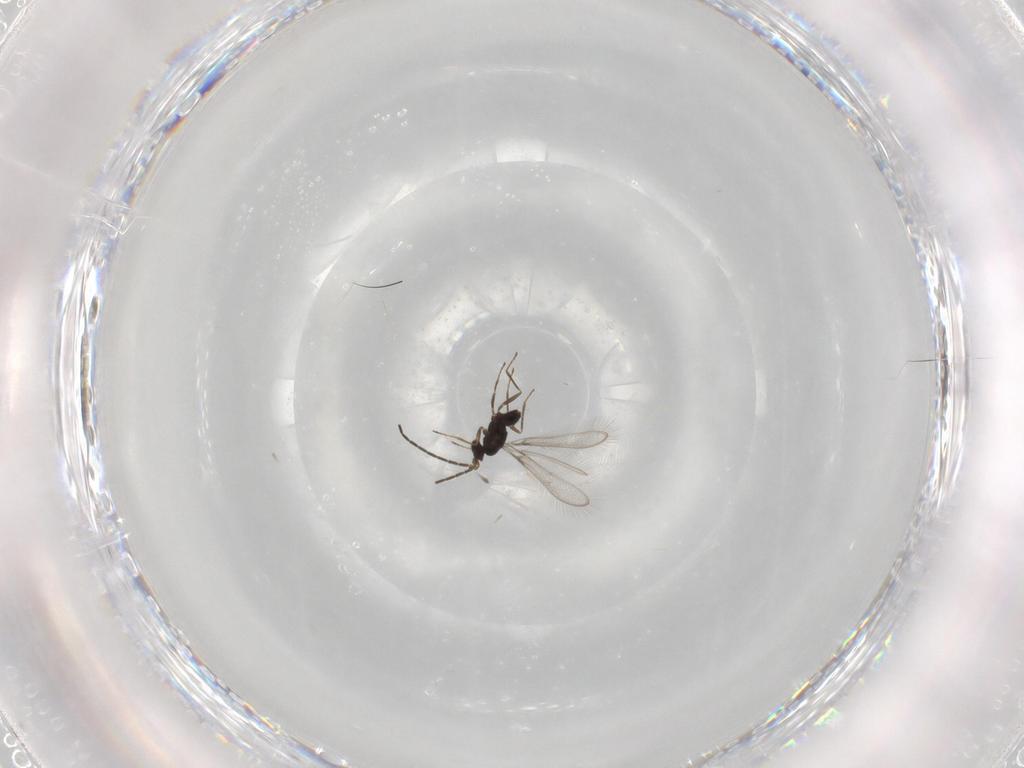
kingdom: Animalia
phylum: Arthropoda
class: Insecta
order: Hymenoptera
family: Mymaridae
